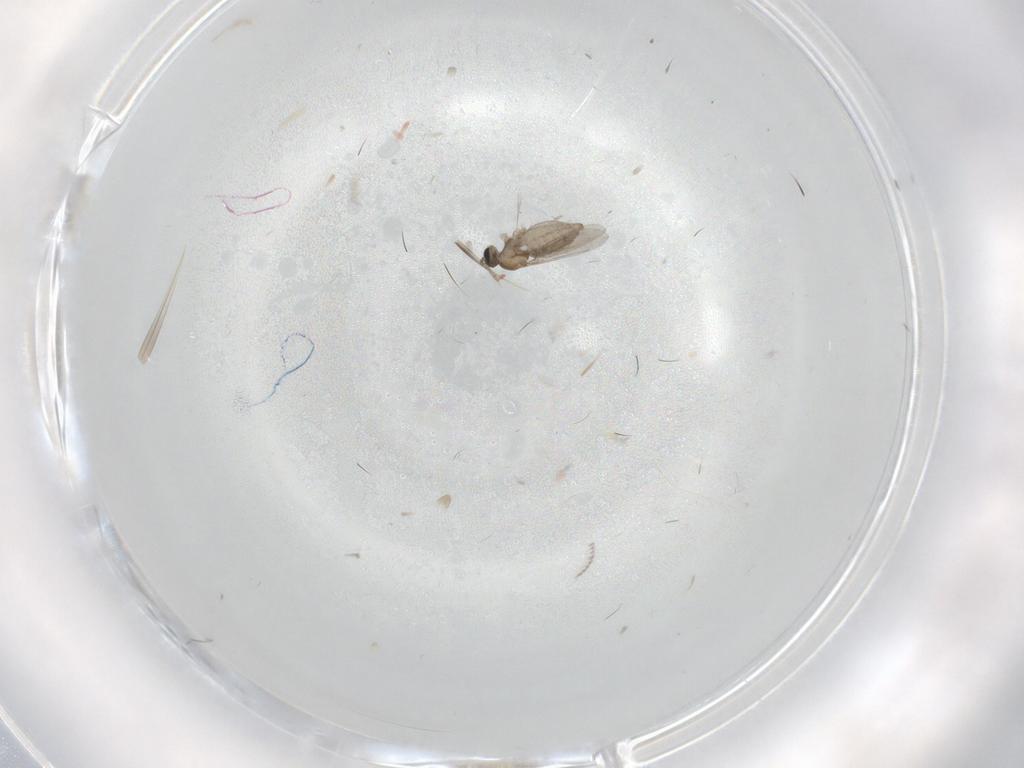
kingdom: Animalia
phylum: Arthropoda
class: Insecta
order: Diptera
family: Ceratopogonidae
